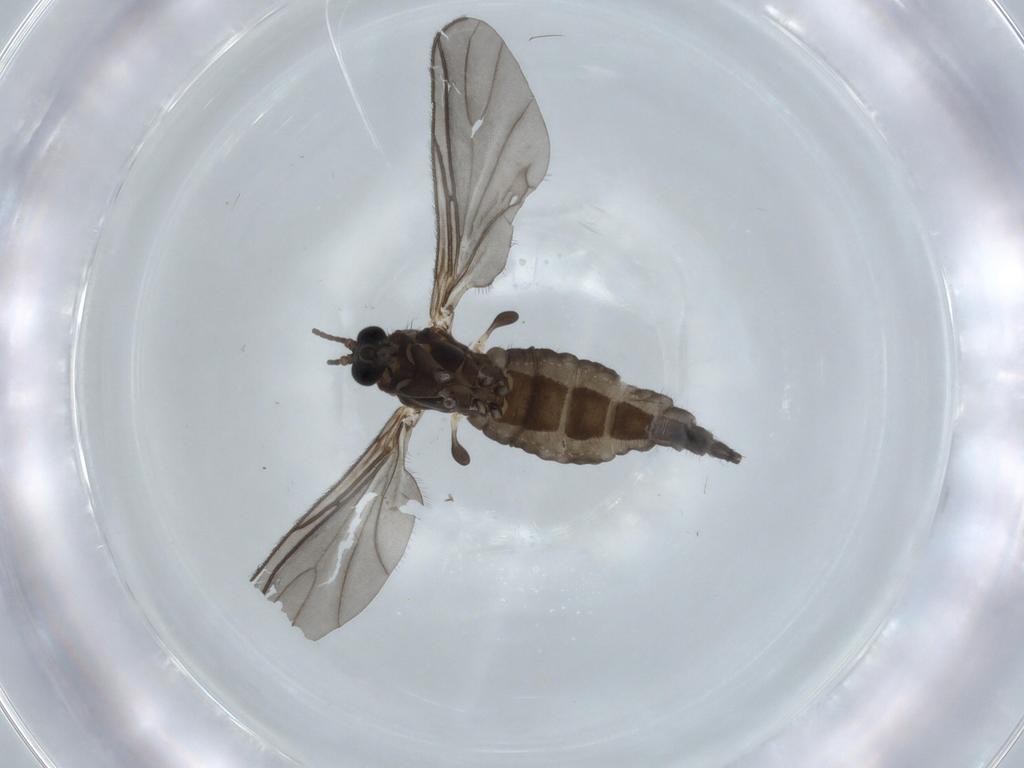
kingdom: Animalia
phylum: Arthropoda
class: Insecta
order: Diptera
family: Sciaridae
